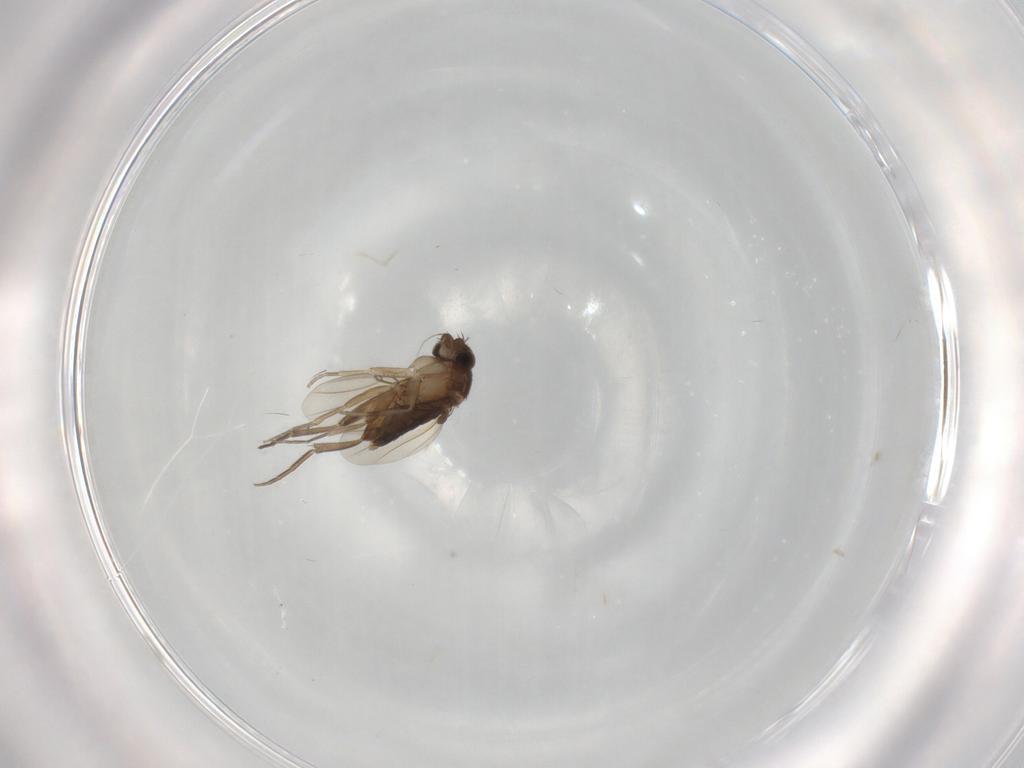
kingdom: Animalia
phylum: Arthropoda
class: Insecta
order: Diptera
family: Phoridae
